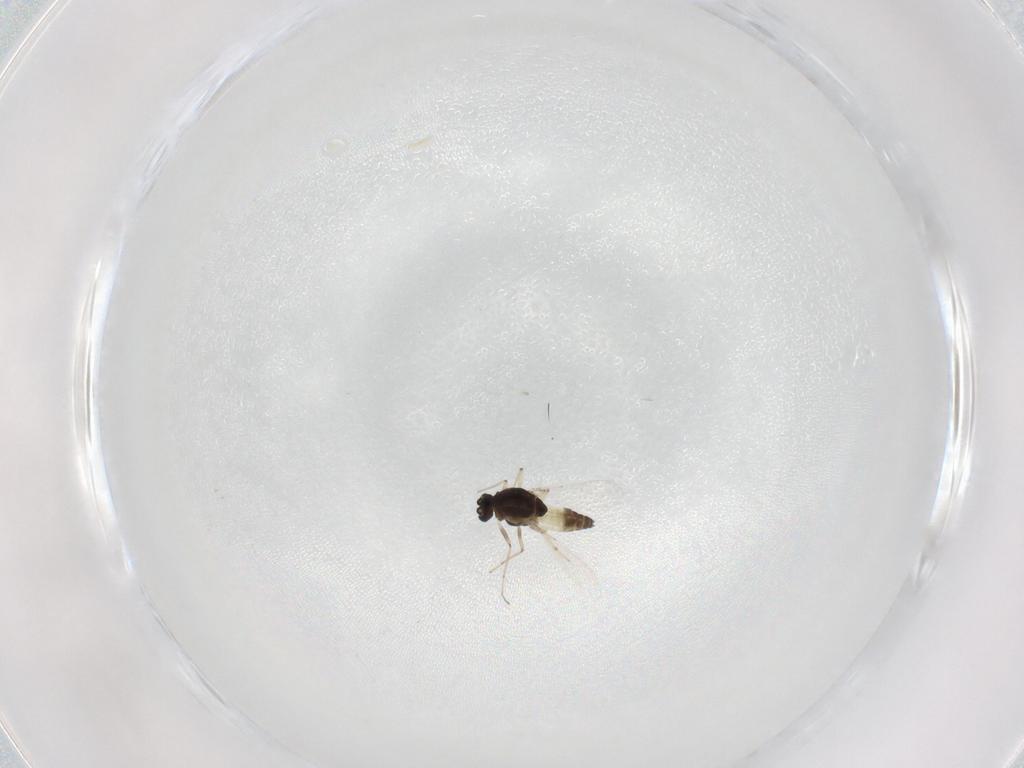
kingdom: Animalia
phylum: Arthropoda
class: Insecta
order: Diptera
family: Chironomidae
